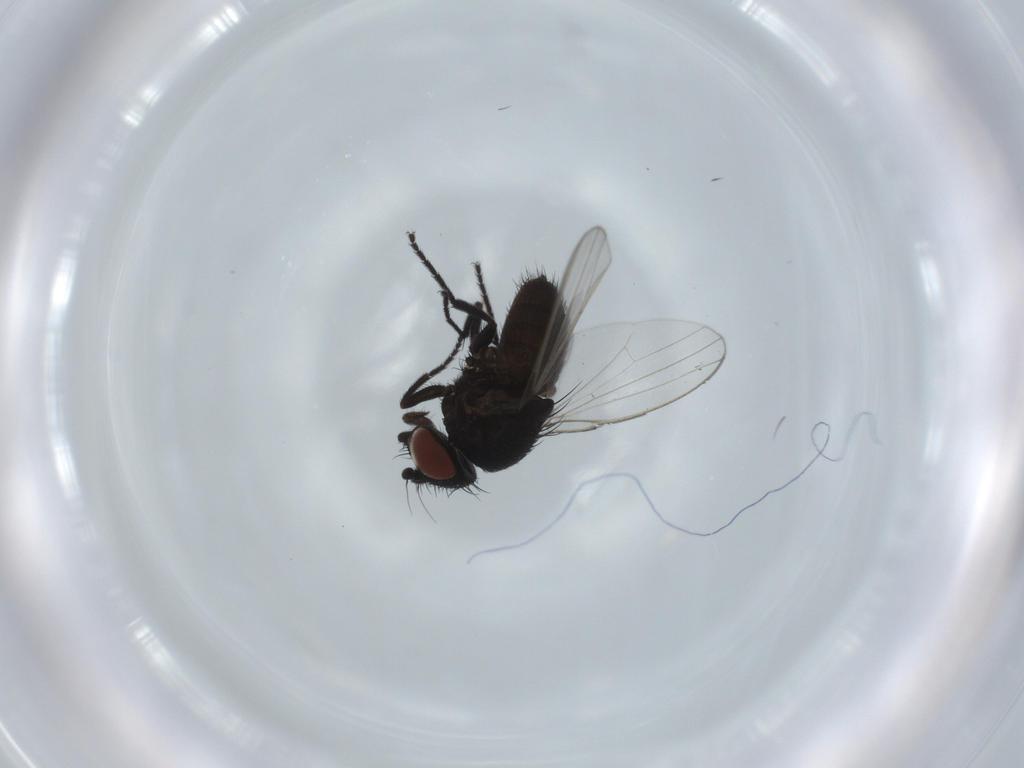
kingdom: Animalia
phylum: Arthropoda
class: Insecta
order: Diptera
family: Milichiidae
